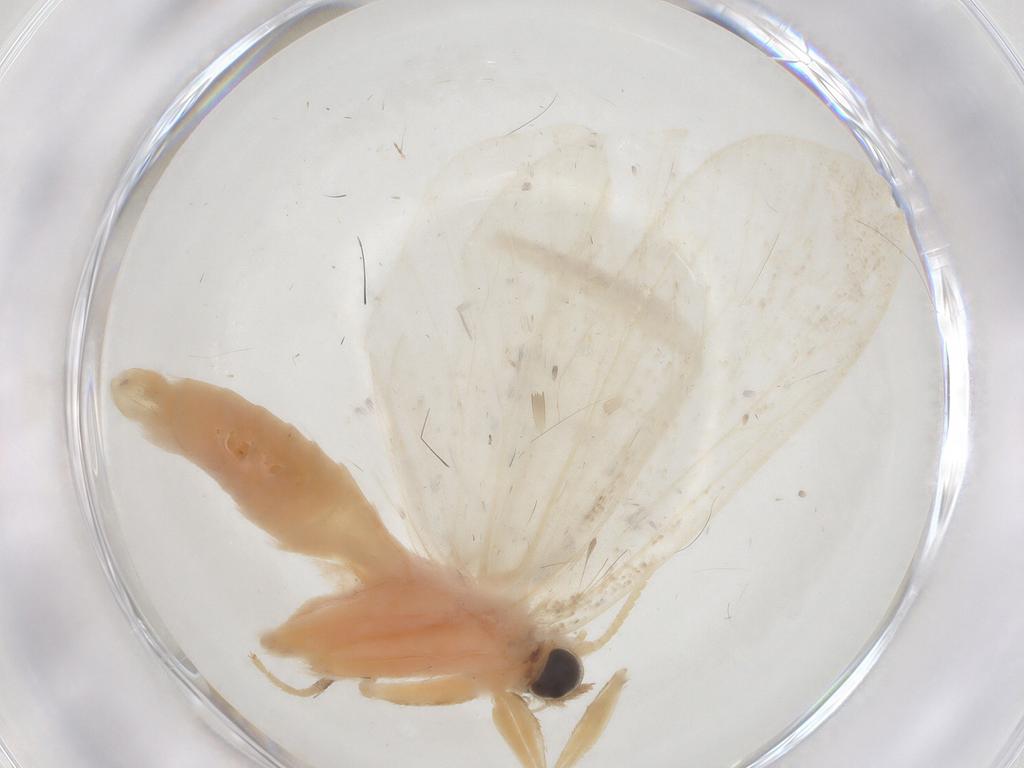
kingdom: Animalia
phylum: Arthropoda
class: Insecta
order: Lepidoptera
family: Crambidae
